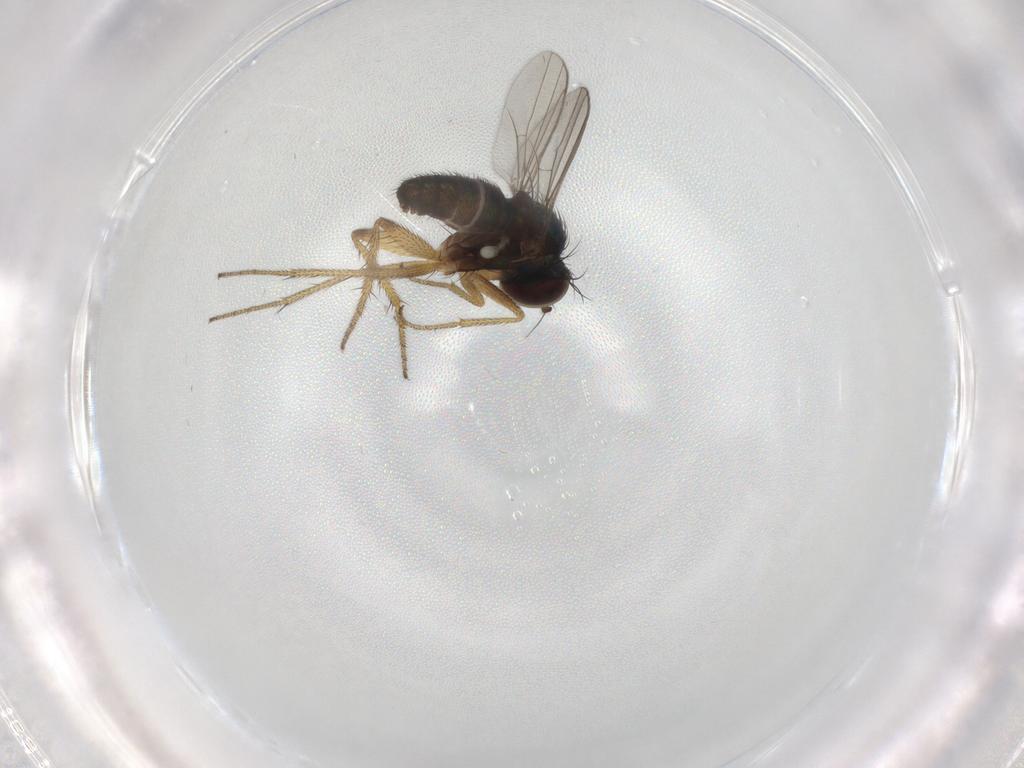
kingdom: Animalia
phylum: Arthropoda
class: Insecta
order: Diptera
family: Dolichopodidae
